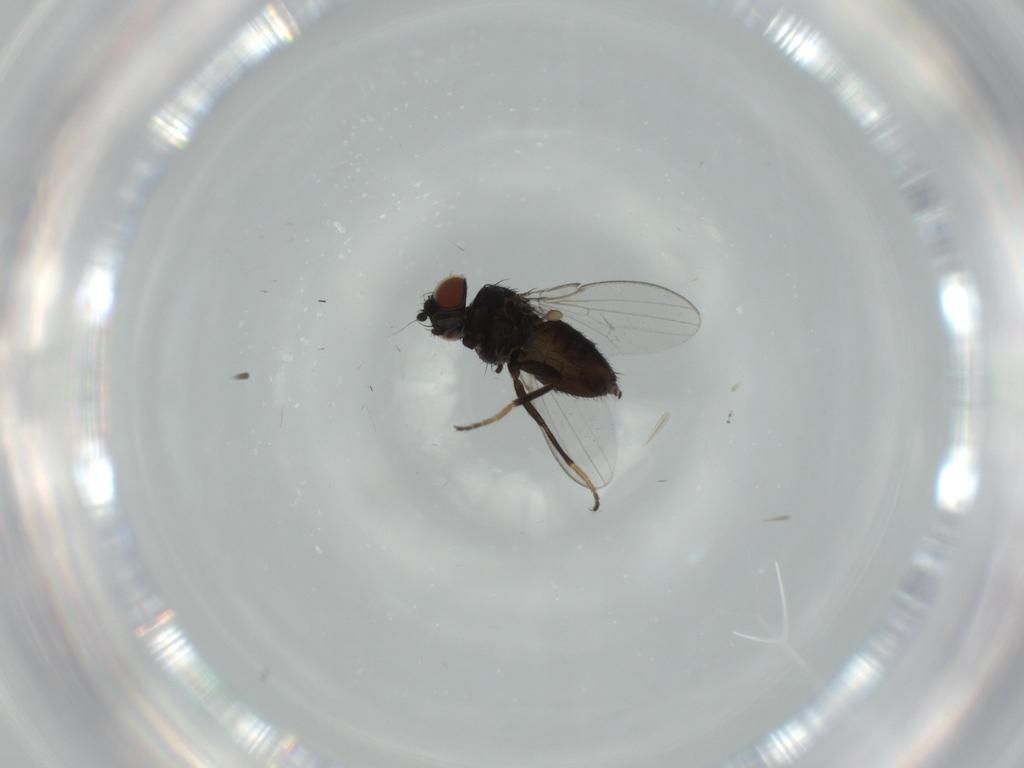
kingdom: Animalia
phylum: Arthropoda
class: Insecta
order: Diptera
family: Milichiidae
